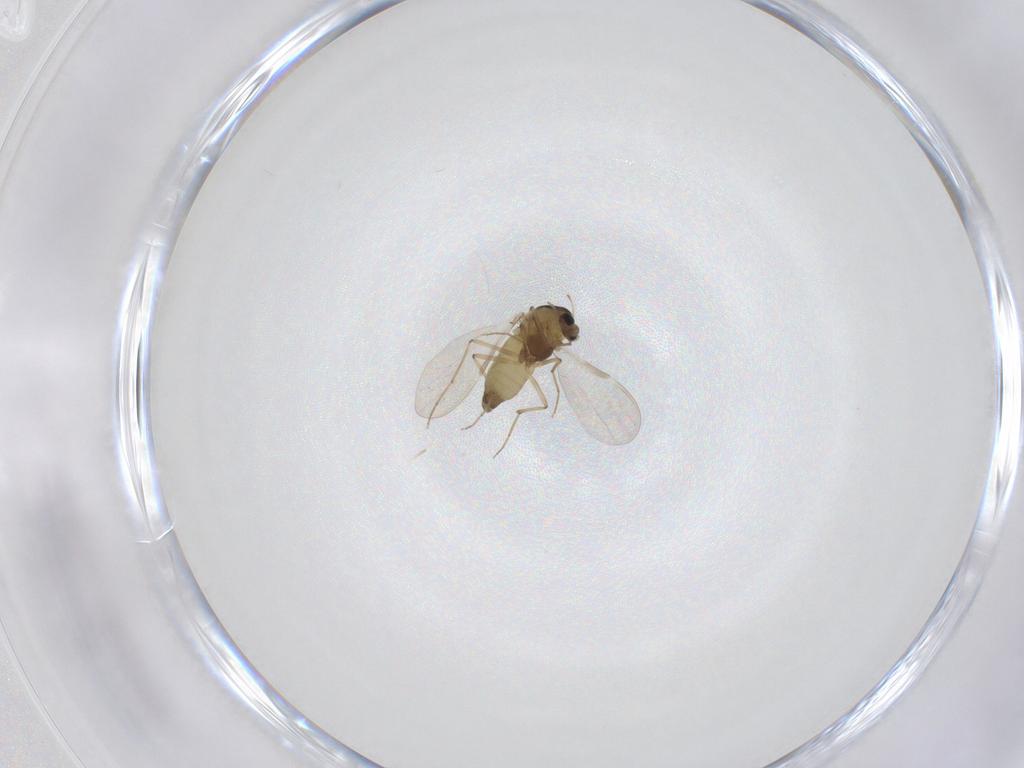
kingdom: Animalia
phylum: Arthropoda
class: Insecta
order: Diptera
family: Chironomidae
